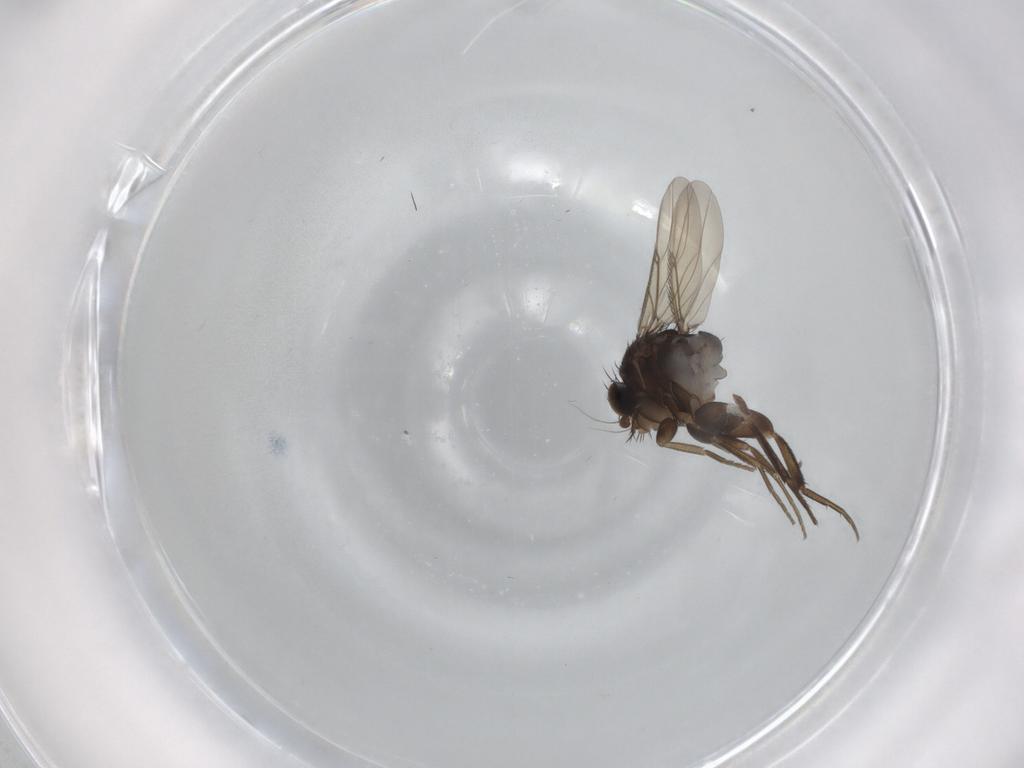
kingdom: Animalia
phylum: Arthropoda
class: Insecta
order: Diptera
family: Phoridae
